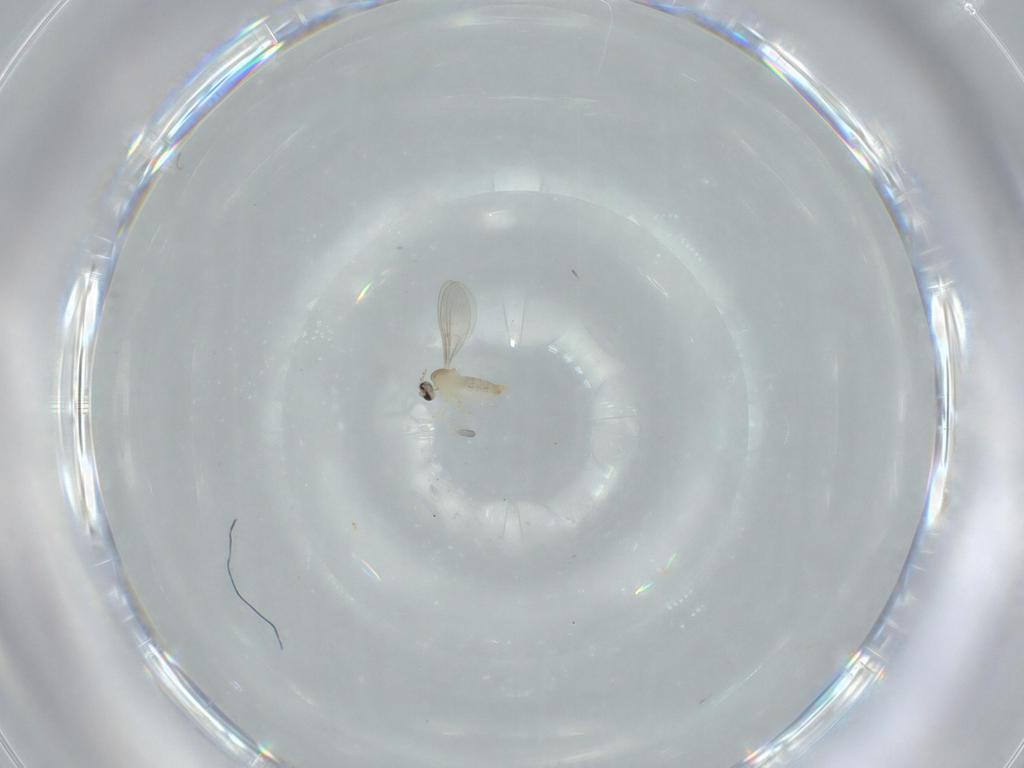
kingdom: Animalia
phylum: Arthropoda
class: Insecta
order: Diptera
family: Cecidomyiidae
